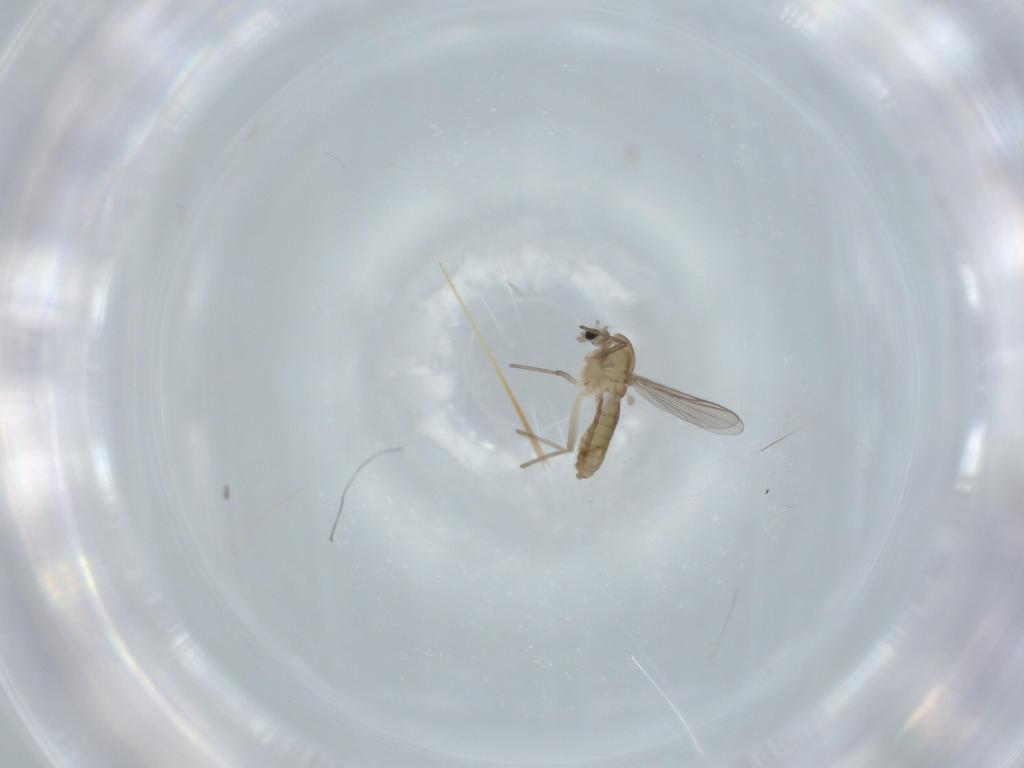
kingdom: Animalia
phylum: Arthropoda
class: Insecta
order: Diptera
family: Chironomidae
